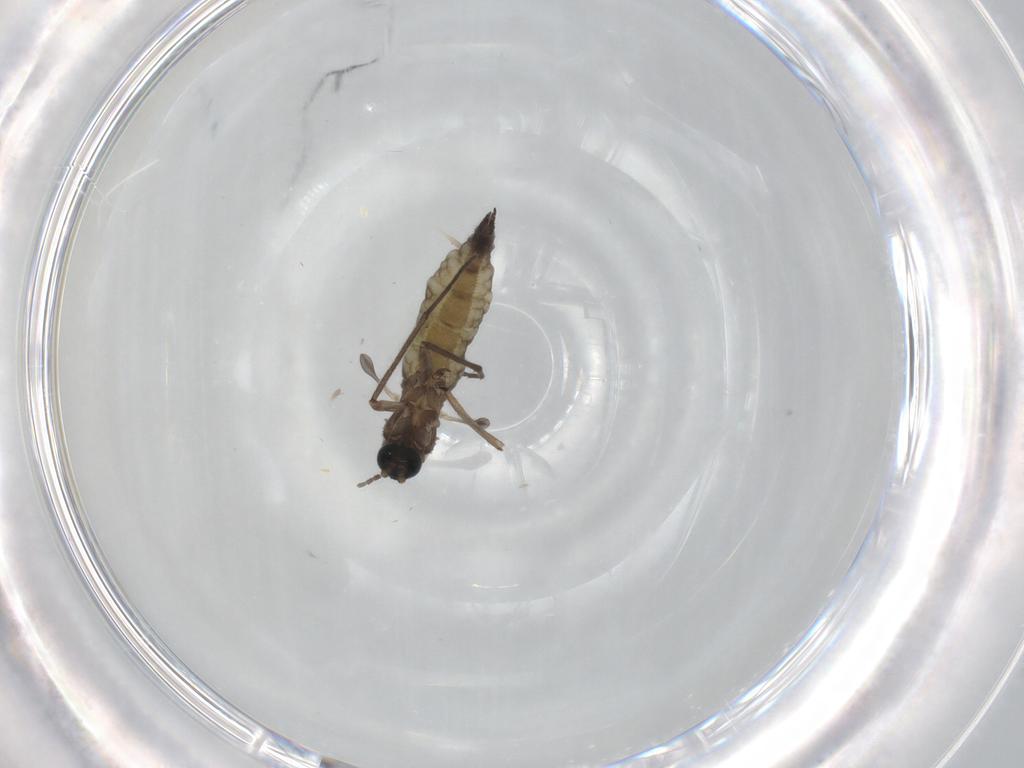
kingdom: Animalia
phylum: Arthropoda
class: Insecta
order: Diptera
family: Sciaridae
